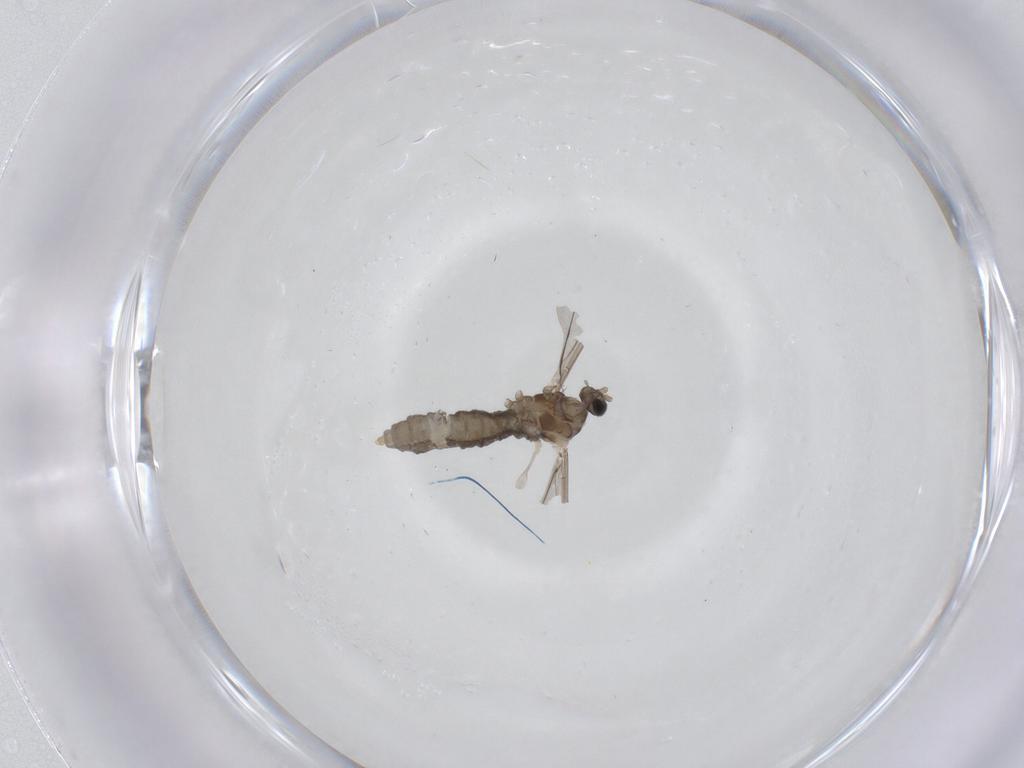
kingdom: Animalia
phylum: Arthropoda
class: Insecta
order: Diptera
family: Cecidomyiidae
